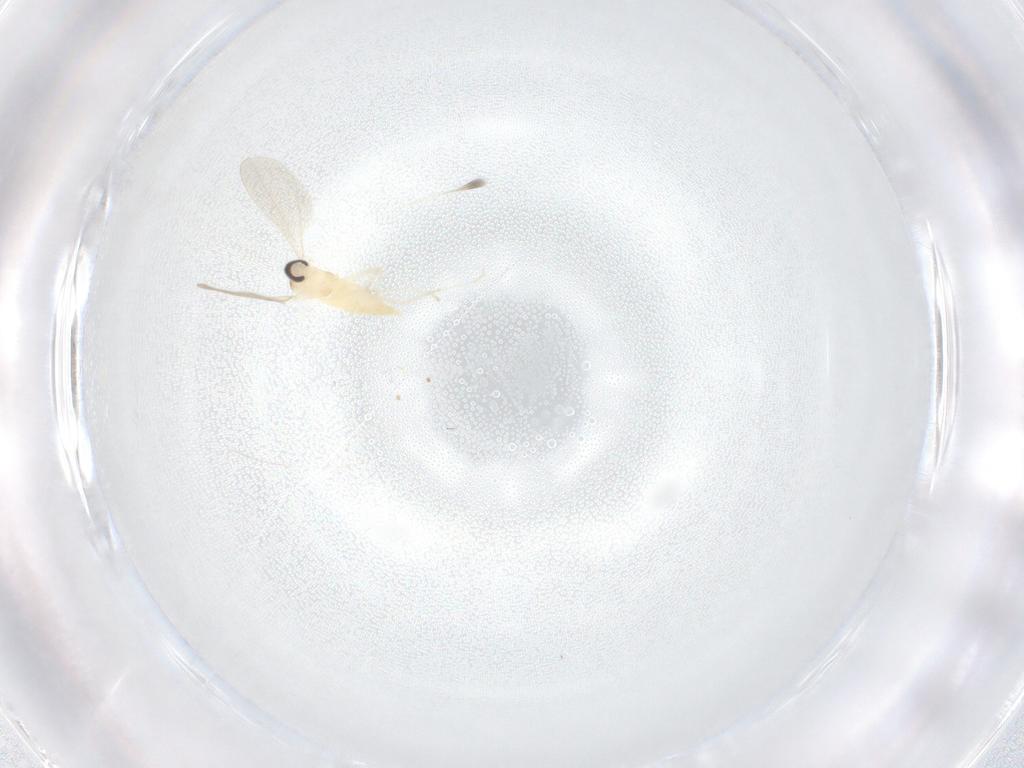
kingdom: Animalia
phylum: Arthropoda
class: Insecta
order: Diptera
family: Cecidomyiidae
